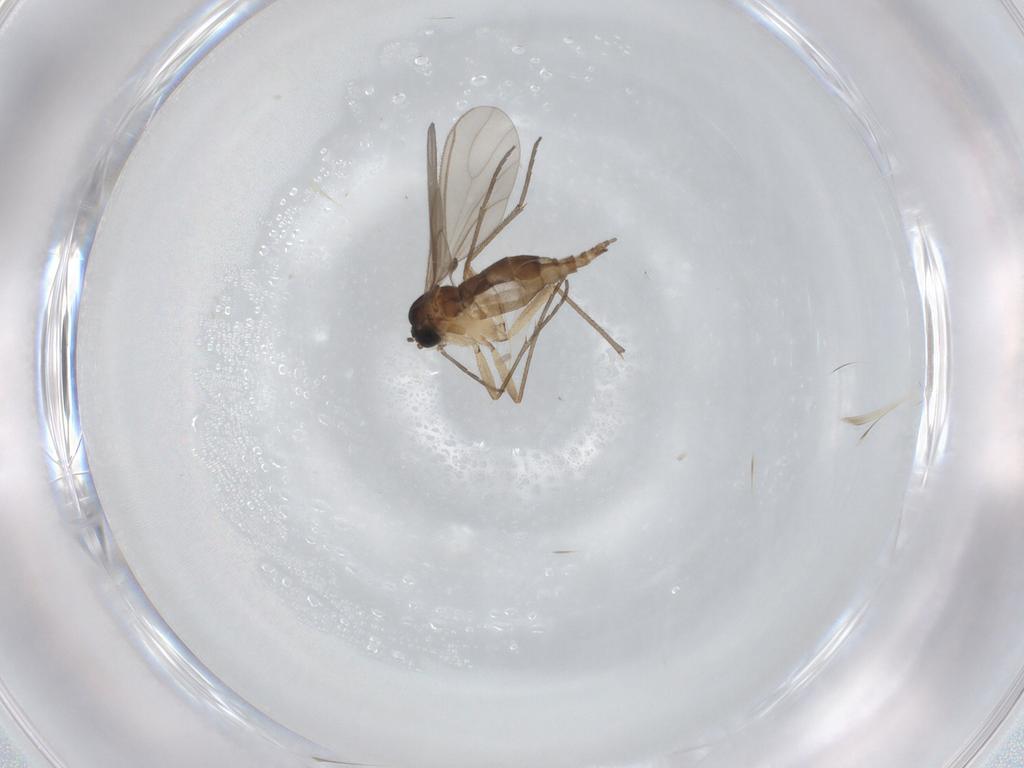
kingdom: Animalia
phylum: Arthropoda
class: Insecta
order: Diptera
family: Sciaridae
